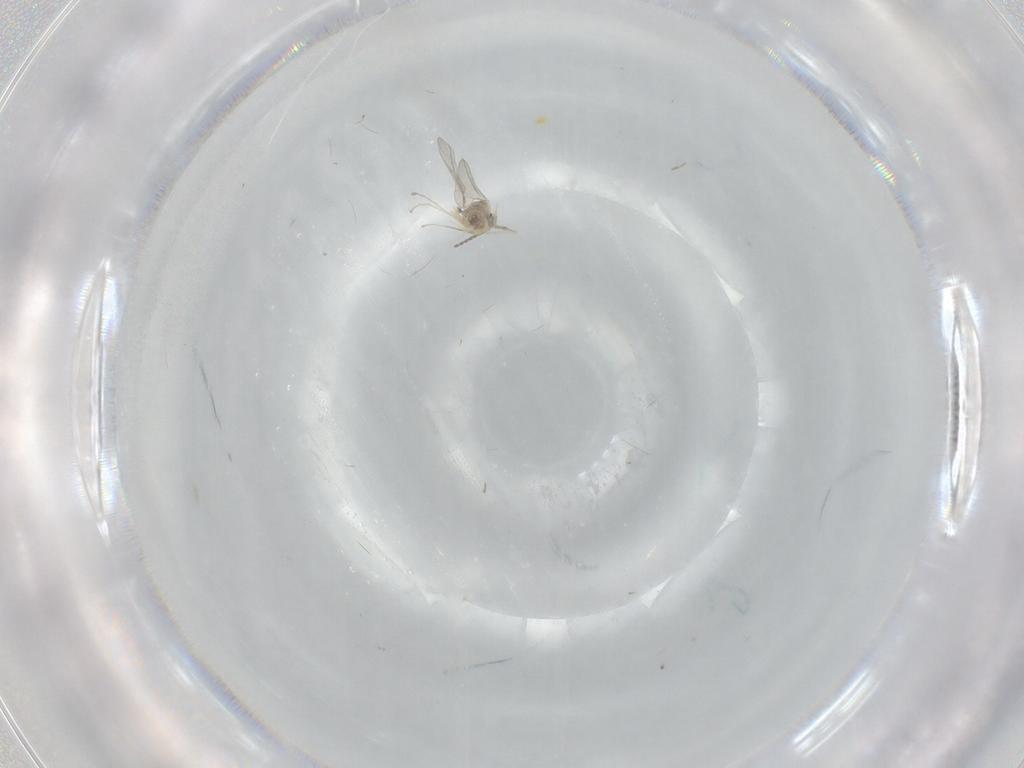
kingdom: Animalia
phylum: Arthropoda
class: Insecta
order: Diptera
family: Cecidomyiidae
